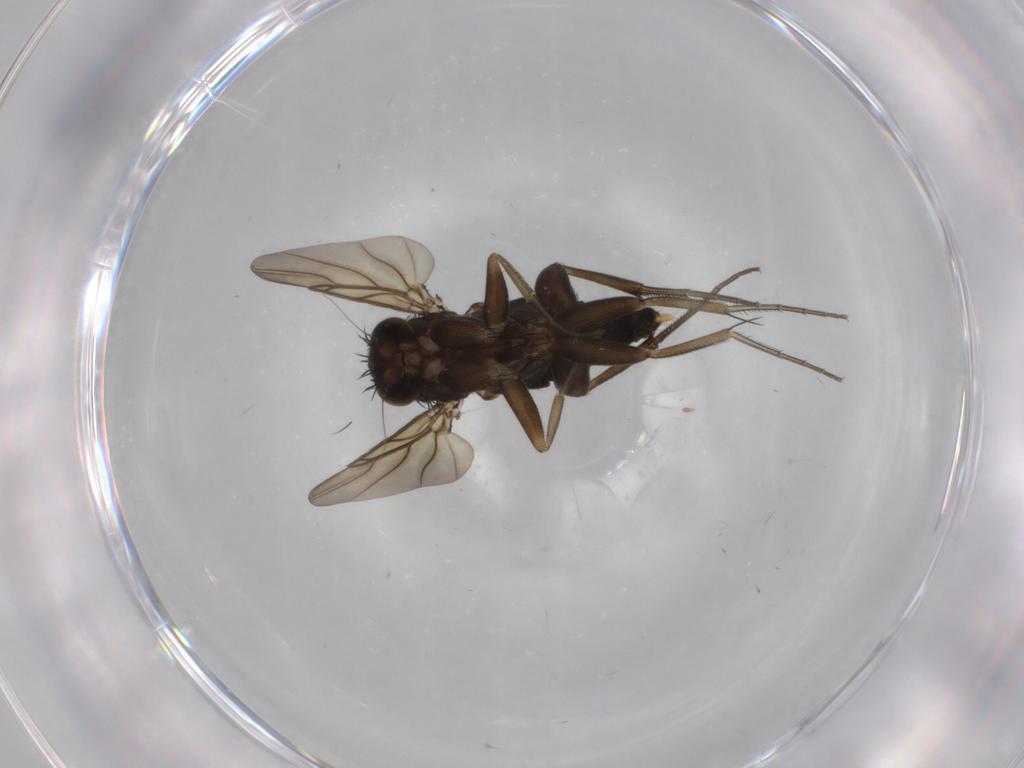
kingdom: Animalia
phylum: Arthropoda
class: Insecta
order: Diptera
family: Phoridae
